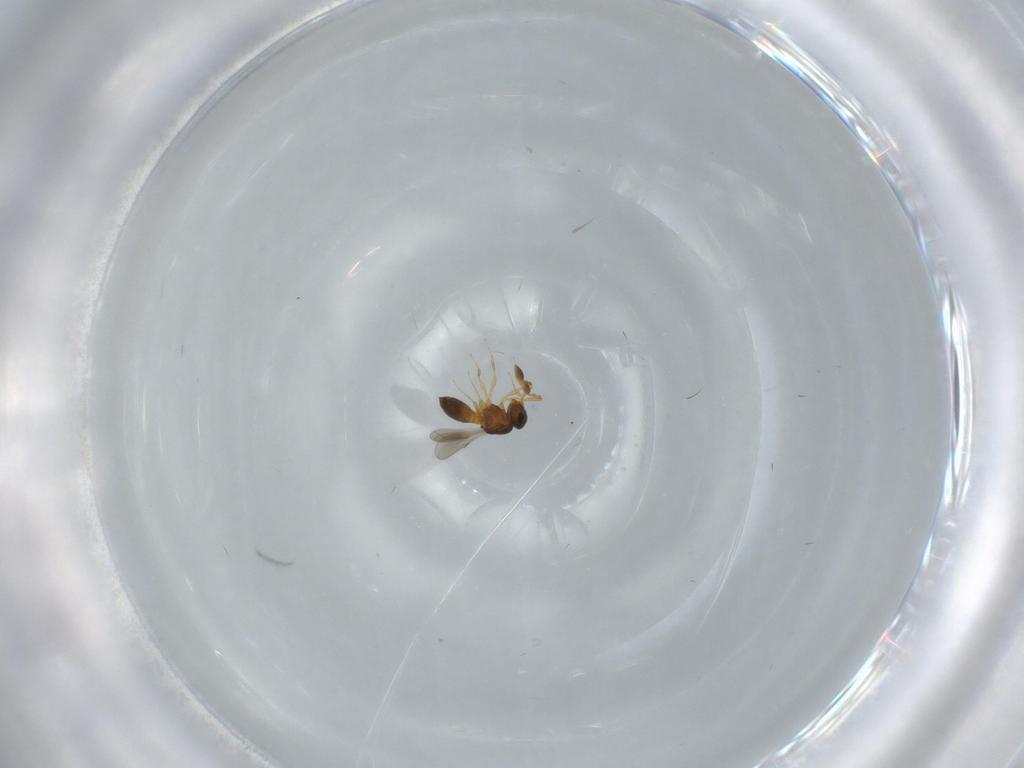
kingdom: Animalia
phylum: Arthropoda
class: Insecta
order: Hymenoptera
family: Scelionidae
